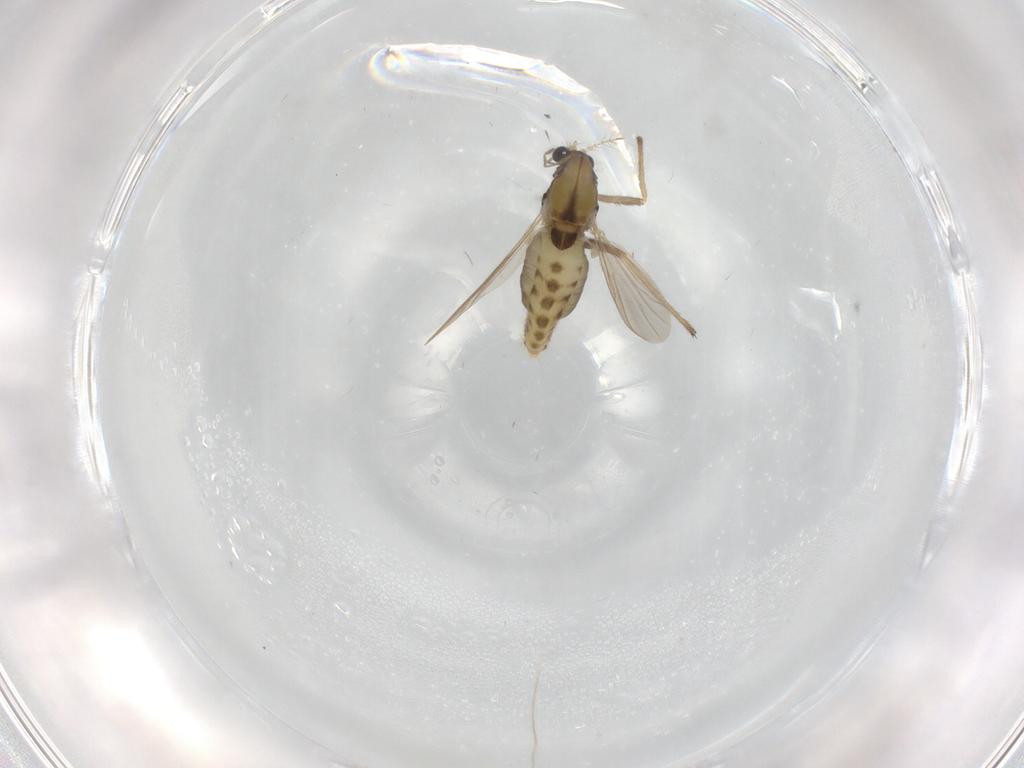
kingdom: Animalia
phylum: Arthropoda
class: Insecta
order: Diptera
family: Chironomidae
